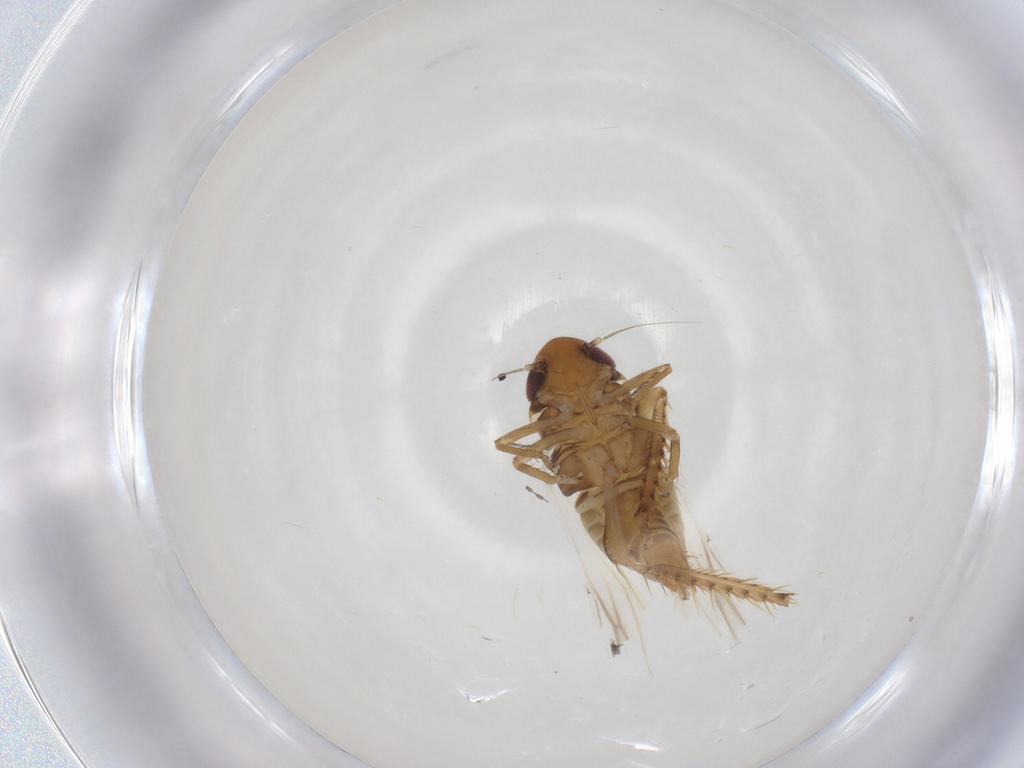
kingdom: Animalia
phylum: Arthropoda
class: Insecta
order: Hemiptera
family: Cicadellidae
